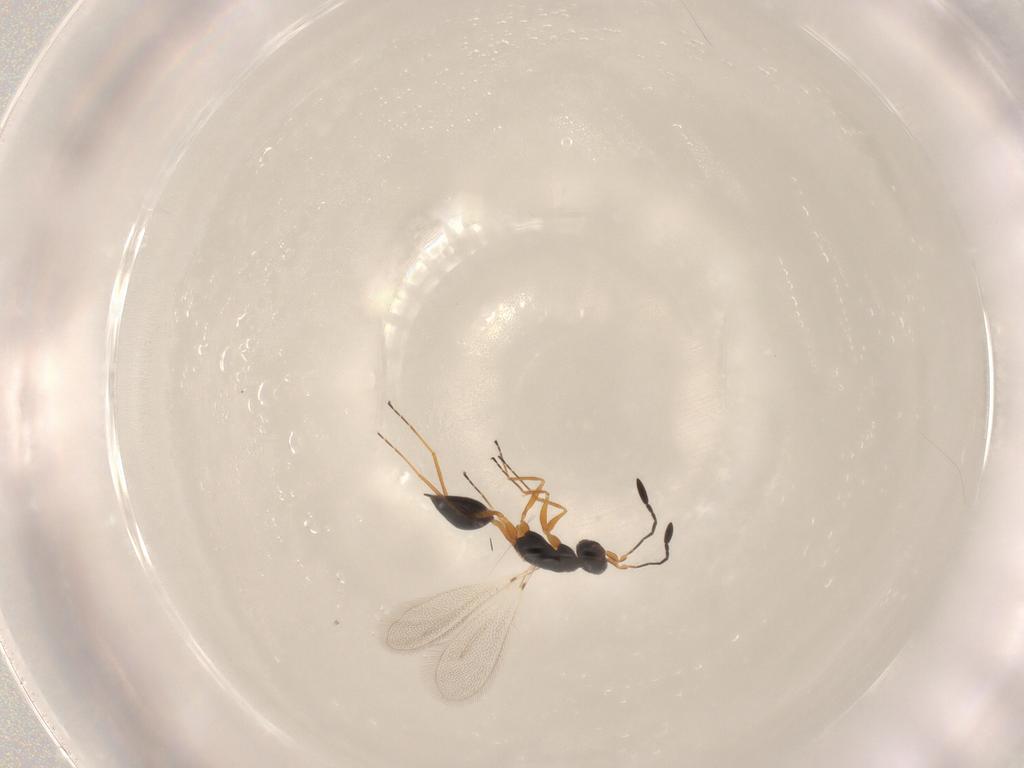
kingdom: Animalia
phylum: Arthropoda
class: Insecta
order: Hymenoptera
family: Mymaridae
